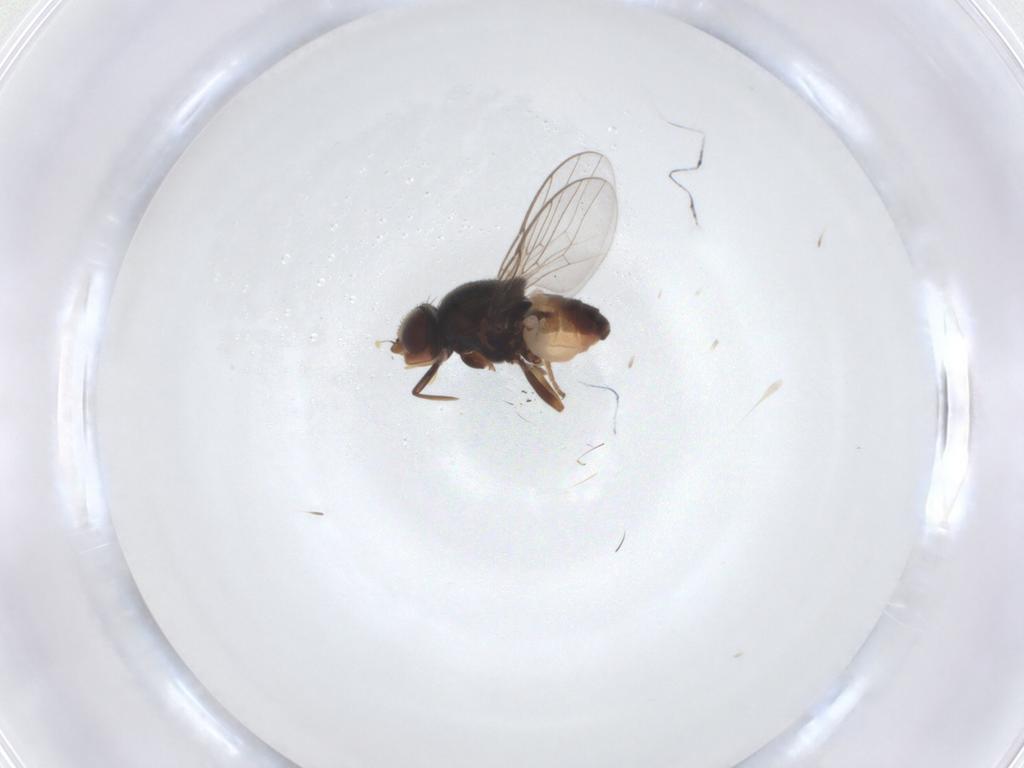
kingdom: Animalia
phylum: Arthropoda
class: Insecta
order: Diptera
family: Chloropidae
